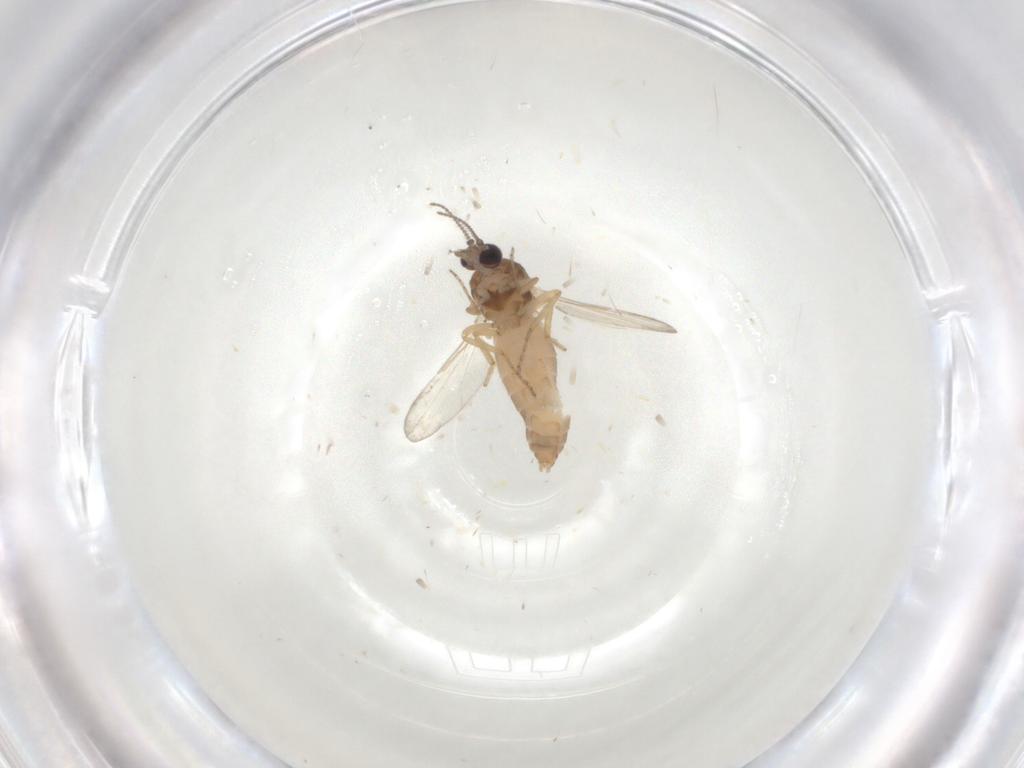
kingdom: Animalia
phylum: Arthropoda
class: Insecta
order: Diptera
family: Ceratopogonidae
